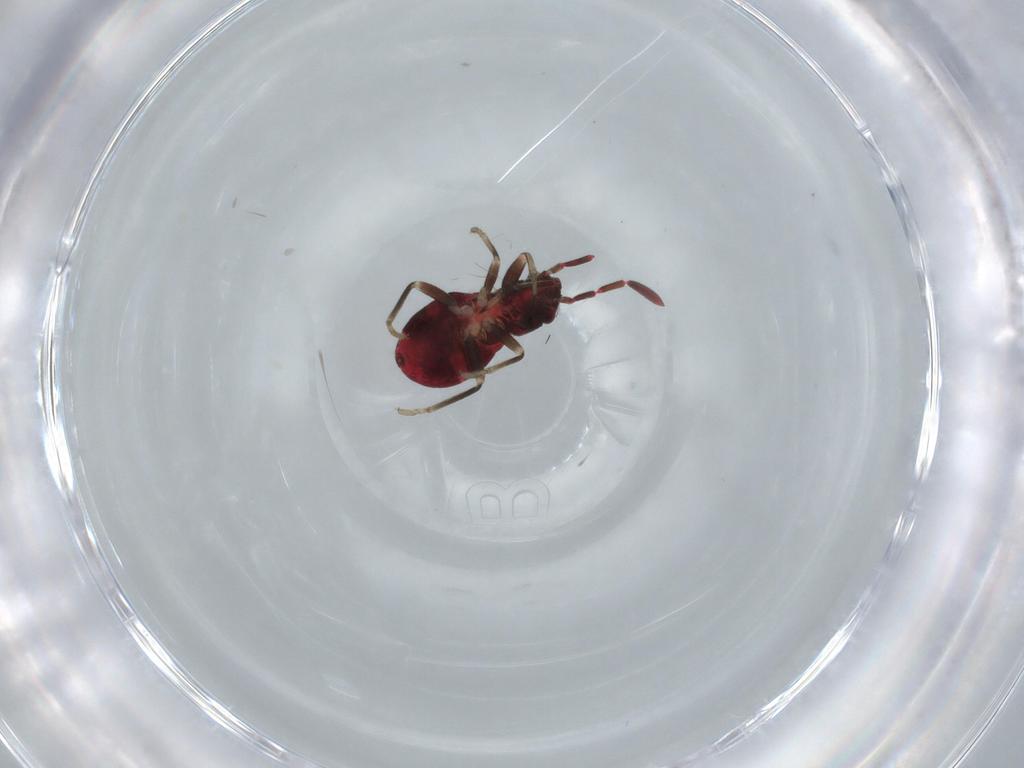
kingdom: Animalia
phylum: Arthropoda
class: Insecta
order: Hemiptera
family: Rhyparochromidae
